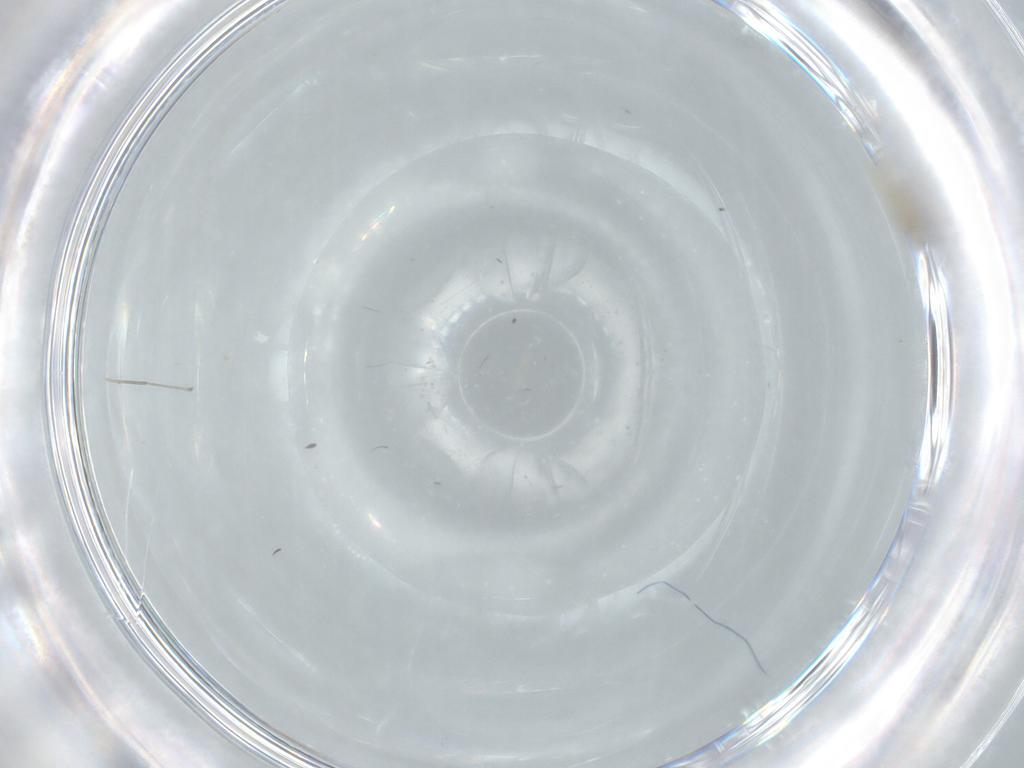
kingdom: Animalia
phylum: Arthropoda
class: Insecta
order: Diptera
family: Cecidomyiidae
